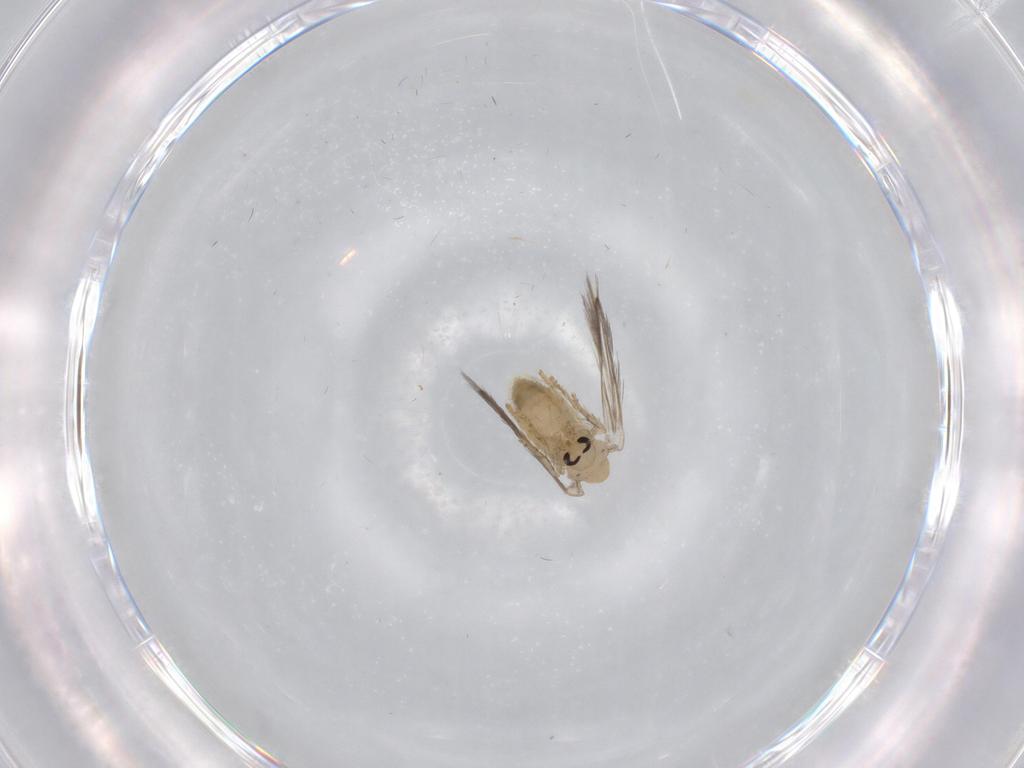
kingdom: Animalia
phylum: Arthropoda
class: Insecta
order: Diptera
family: Psychodidae
